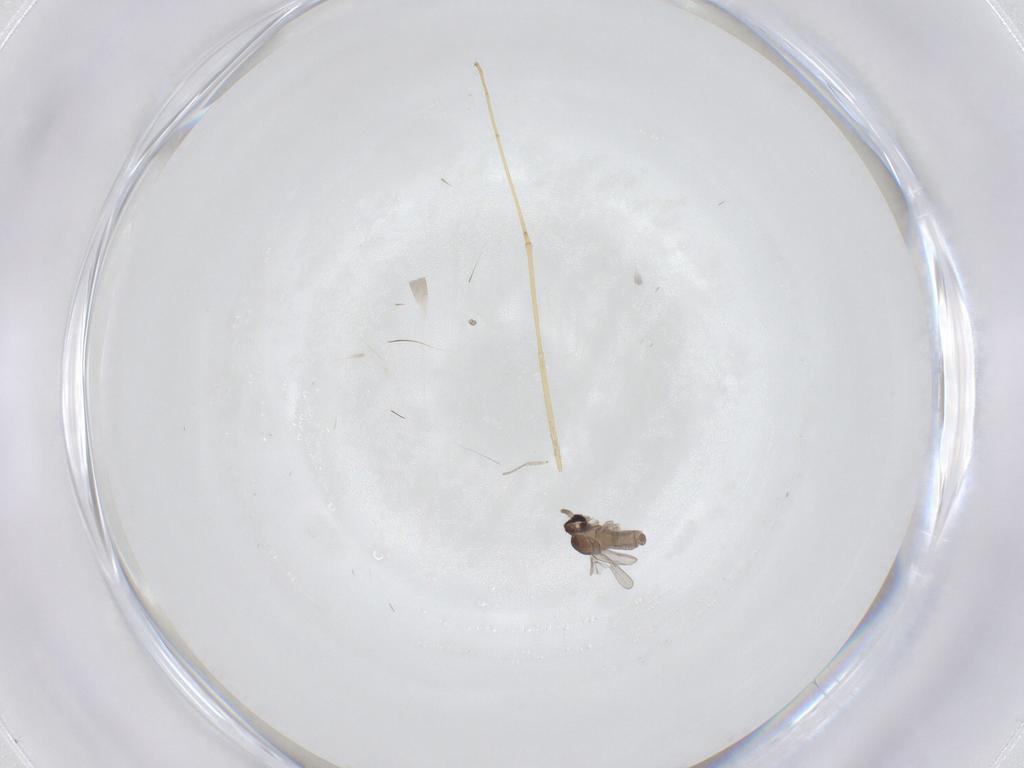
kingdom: Animalia
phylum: Arthropoda
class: Insecta
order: Diptera
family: Cecidomyiidae
